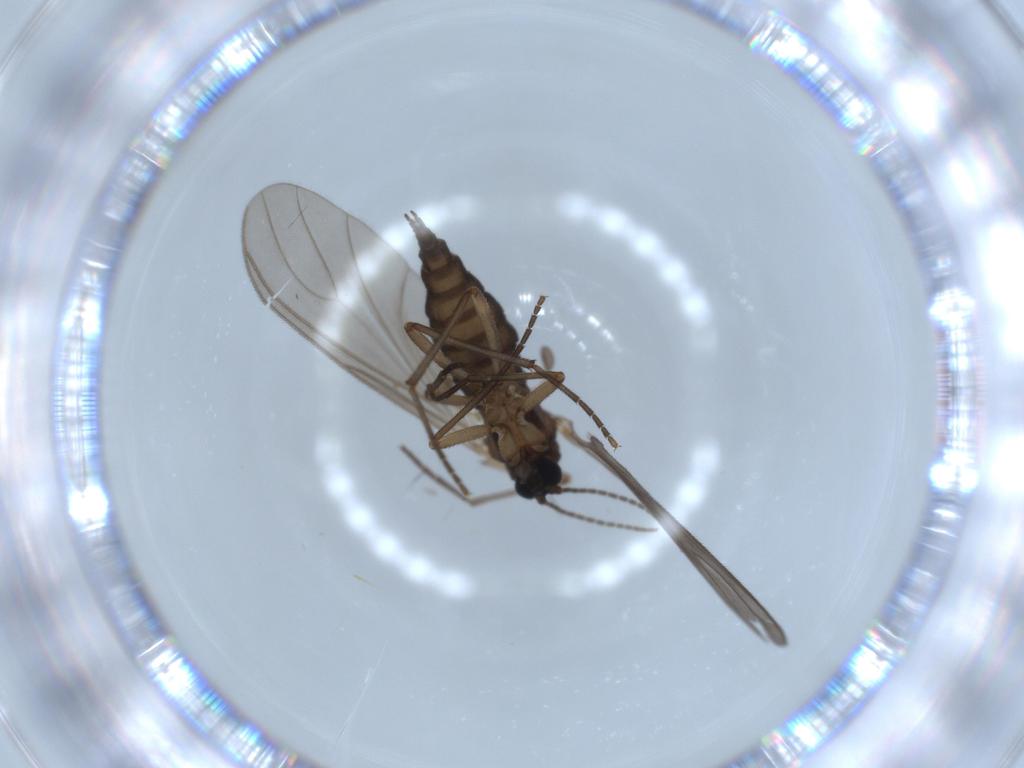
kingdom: Animalia
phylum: Arthropoda
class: Insecta
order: Diptera
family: Sciaridae
